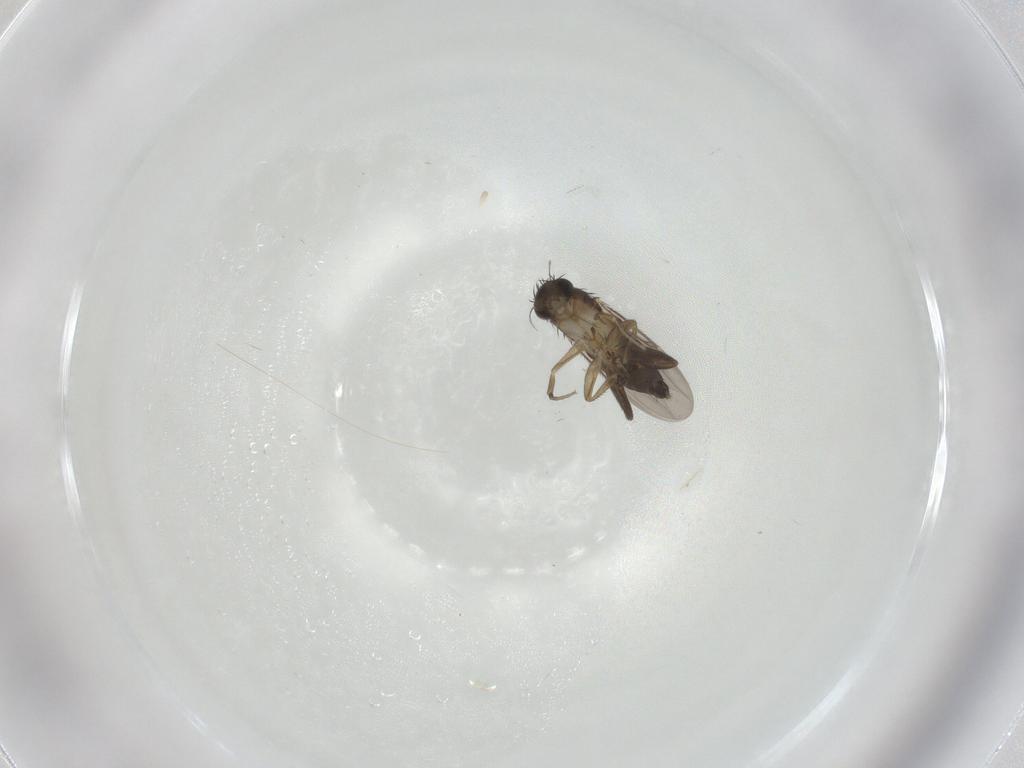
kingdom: Animalia
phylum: Arthropoda
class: Insecta
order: Diptera
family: Phoridae
